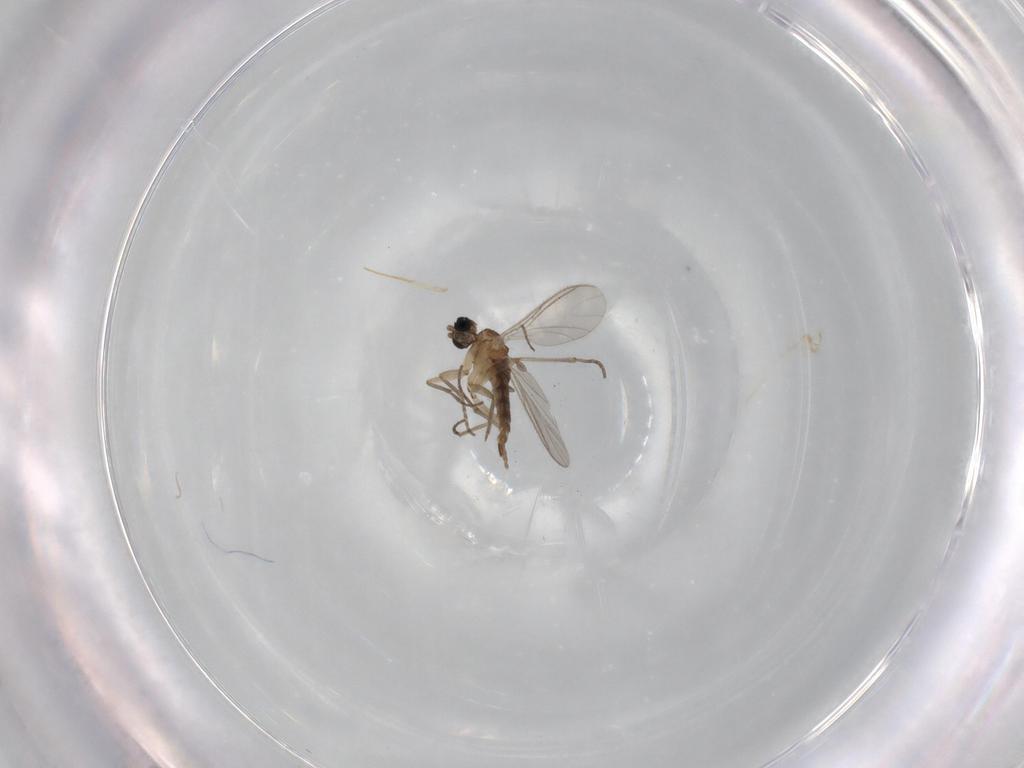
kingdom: Animalia
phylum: Arthropoda
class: Insecta
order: Diptera
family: Sciaridae
